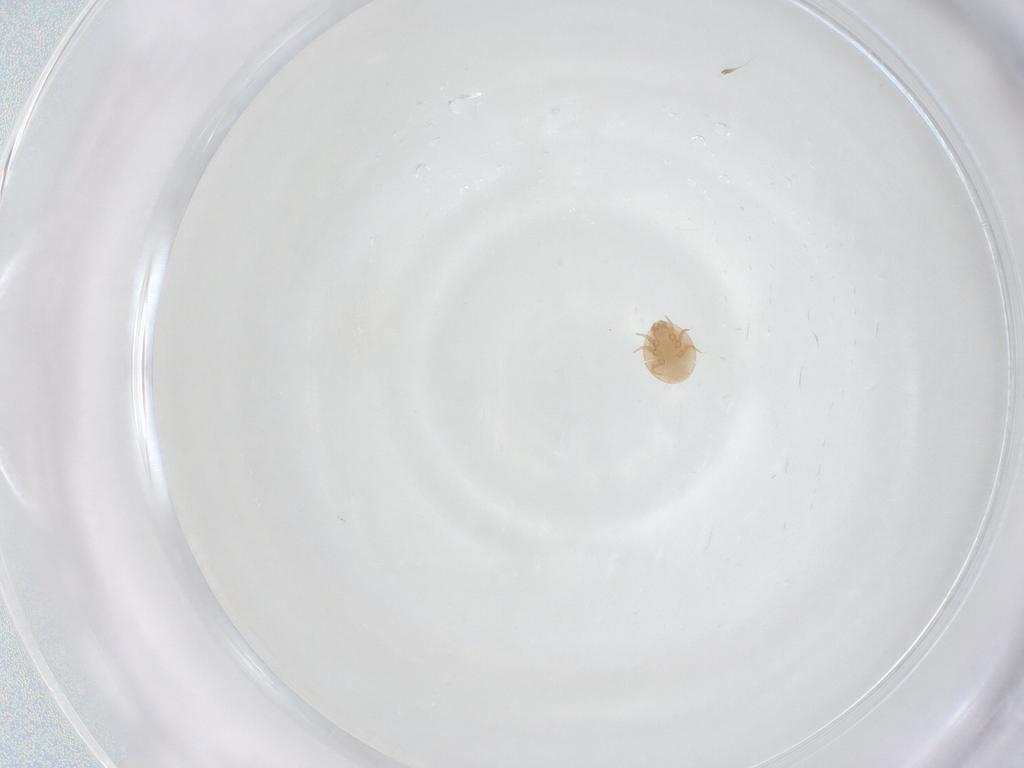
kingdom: Animalia
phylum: Arthropoda
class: Arachnida
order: Mesostigmata
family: Trematuridae
